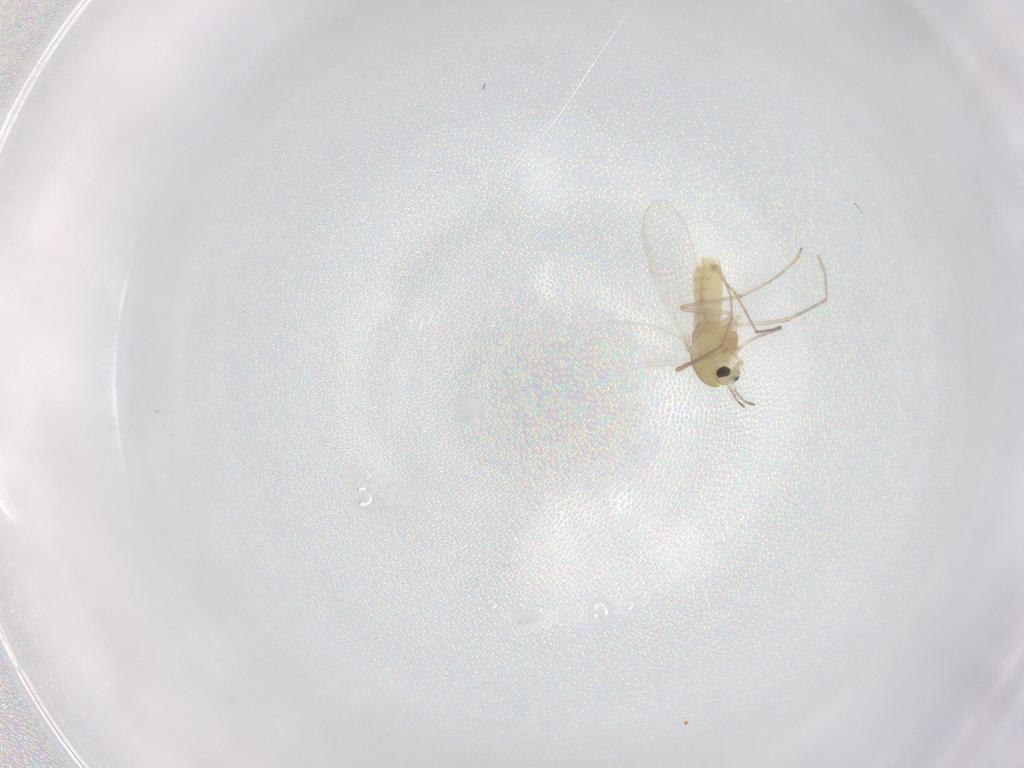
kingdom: Animalia
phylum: Arthropoda
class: Insecta
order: Diptera
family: Chironomidae
